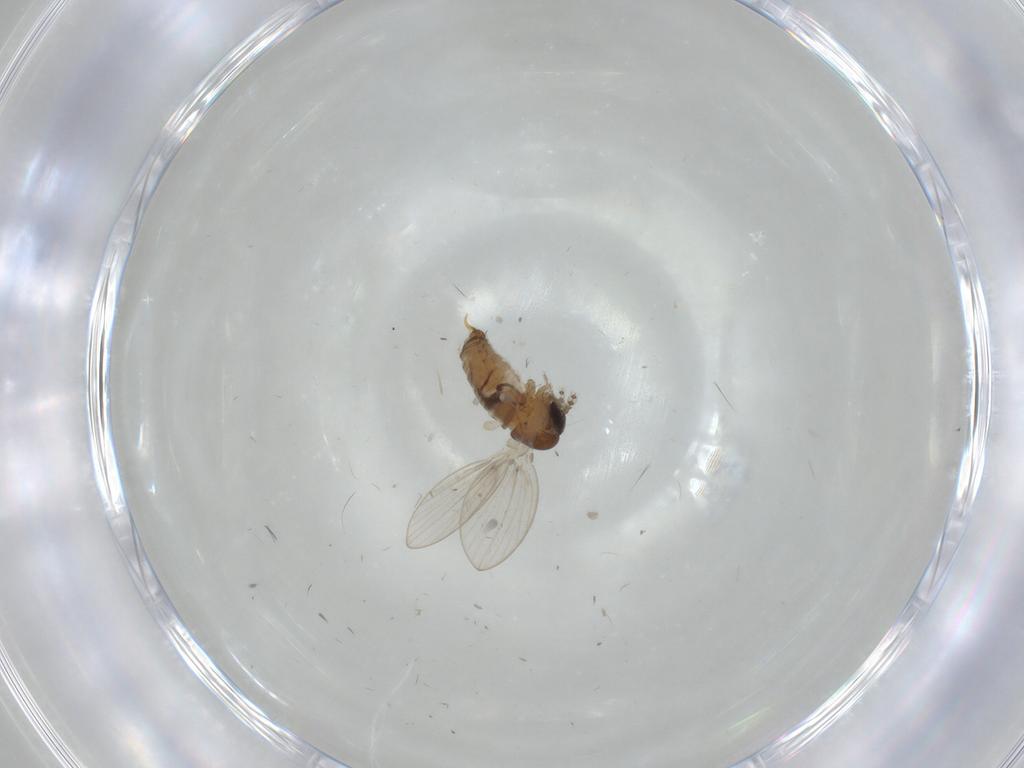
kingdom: Animalia
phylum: Arthropoda
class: Insecta
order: Diptera
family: Psychodidae
